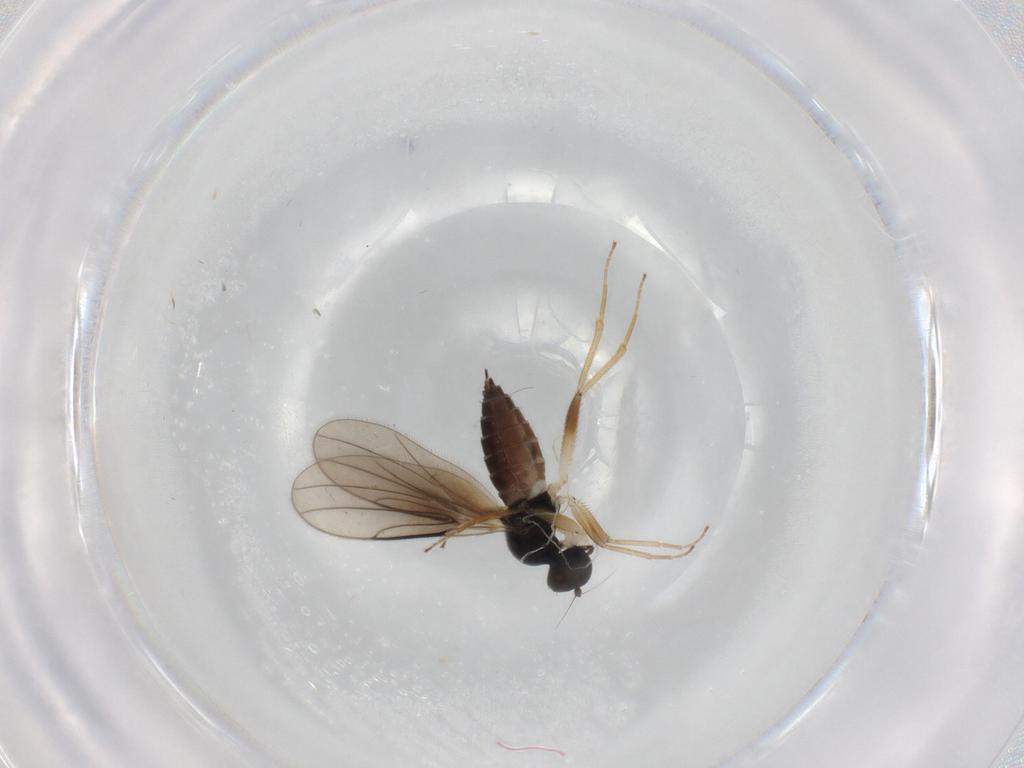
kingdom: Animalia
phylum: Arthropoda
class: Insecta
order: Diptera
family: Hybotidae
